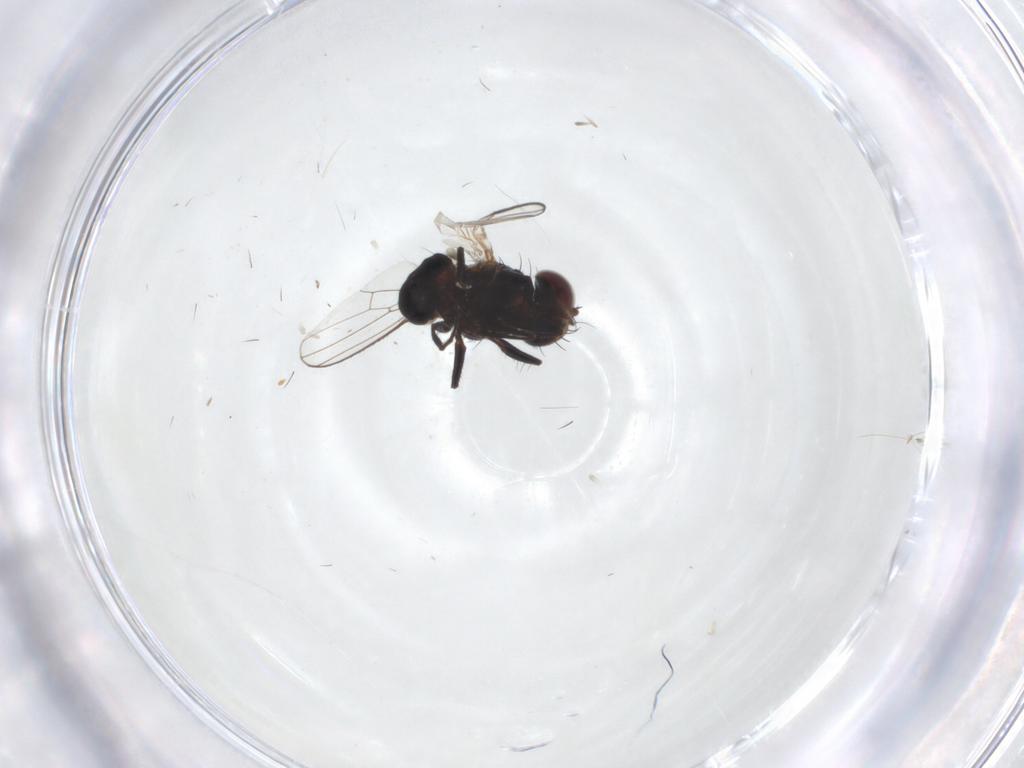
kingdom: Animalia
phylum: Arthropoda
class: Insecta
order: Diptera
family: Carnidae
